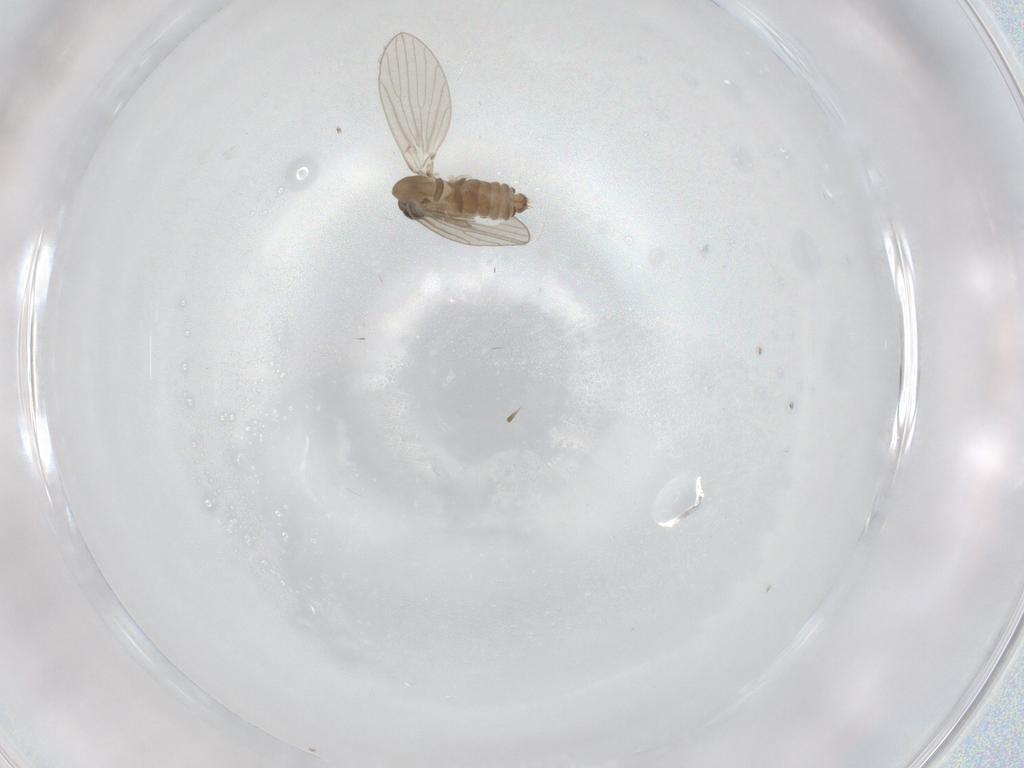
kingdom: Animalia
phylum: Arthropoda
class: Insecta
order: Diptera
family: Psychodidae
